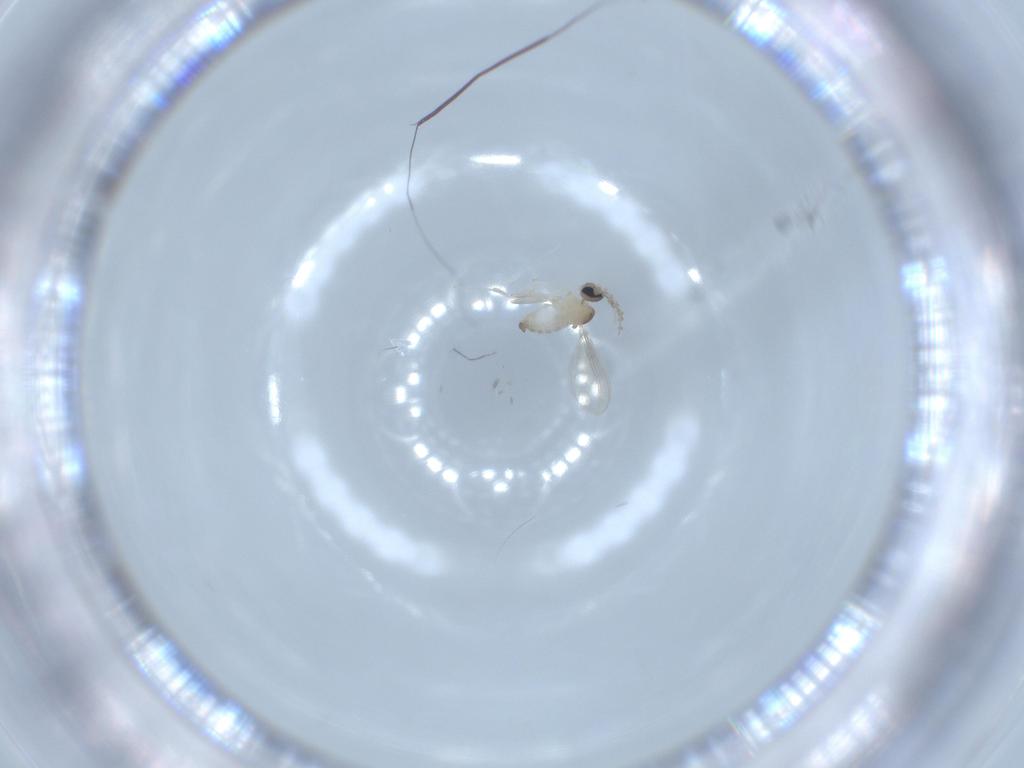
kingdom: Animalia
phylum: Arthropoda
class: Insecta
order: Diptera
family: Cecidomyiidae
